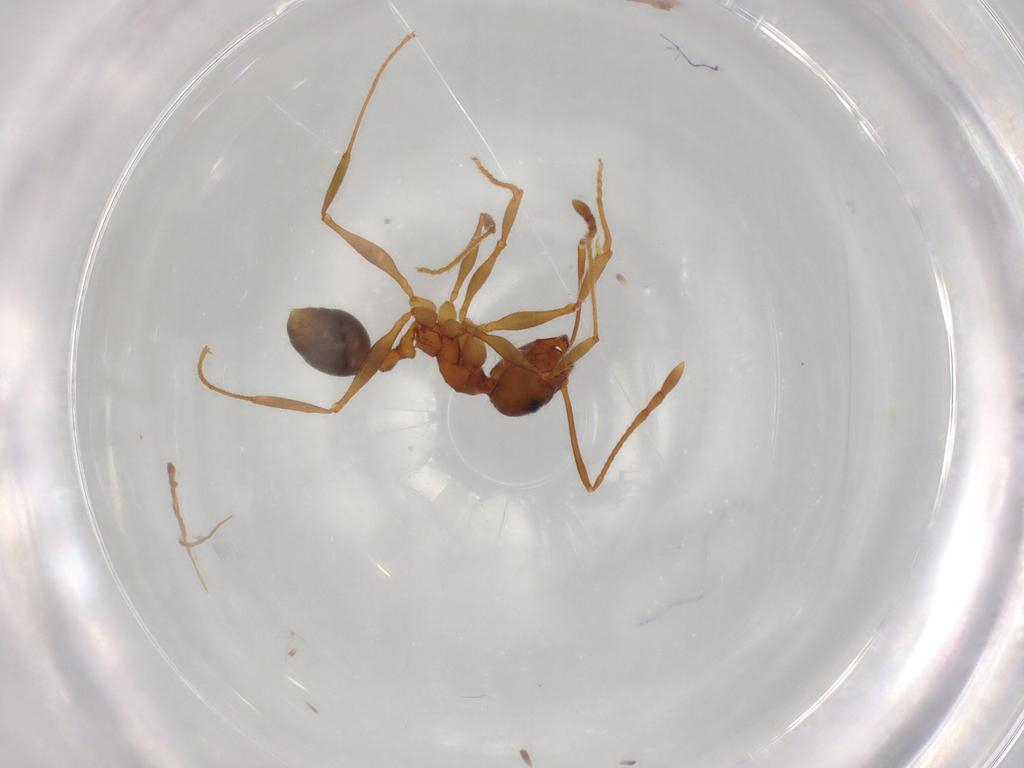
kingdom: Animalia
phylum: Arthropoda
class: Insecta
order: Hymenoptera
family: Formicidae
